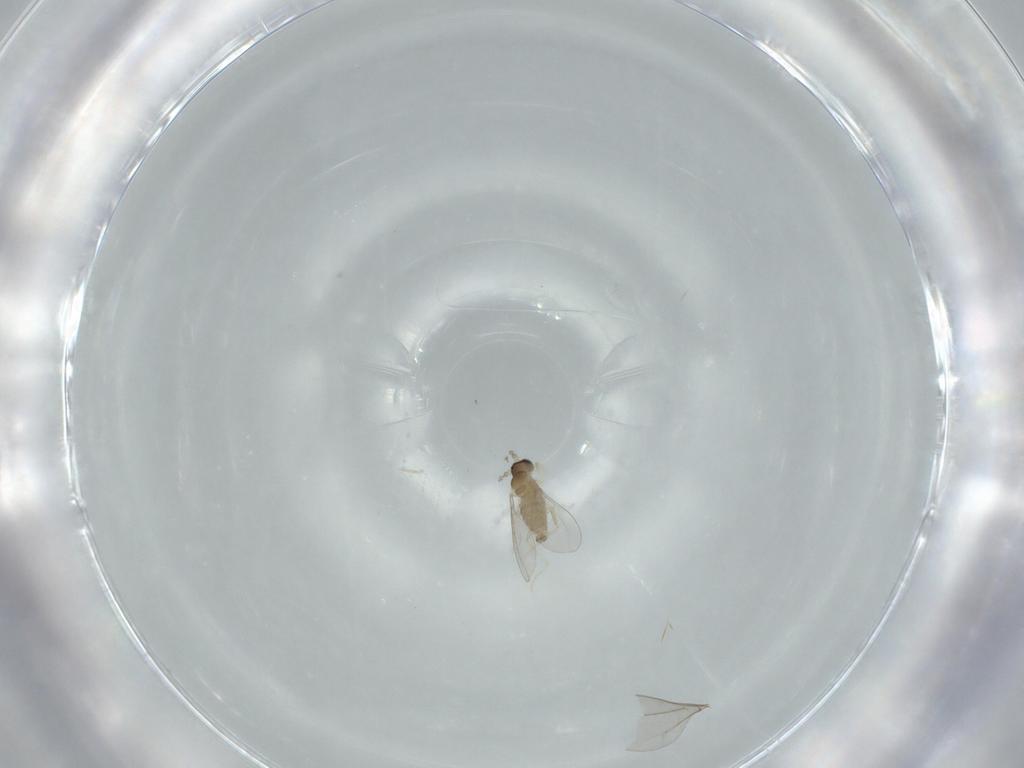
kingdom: Animalia
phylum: Arthropoda
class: Insecta
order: Diptera
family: Cecidomyiidae
